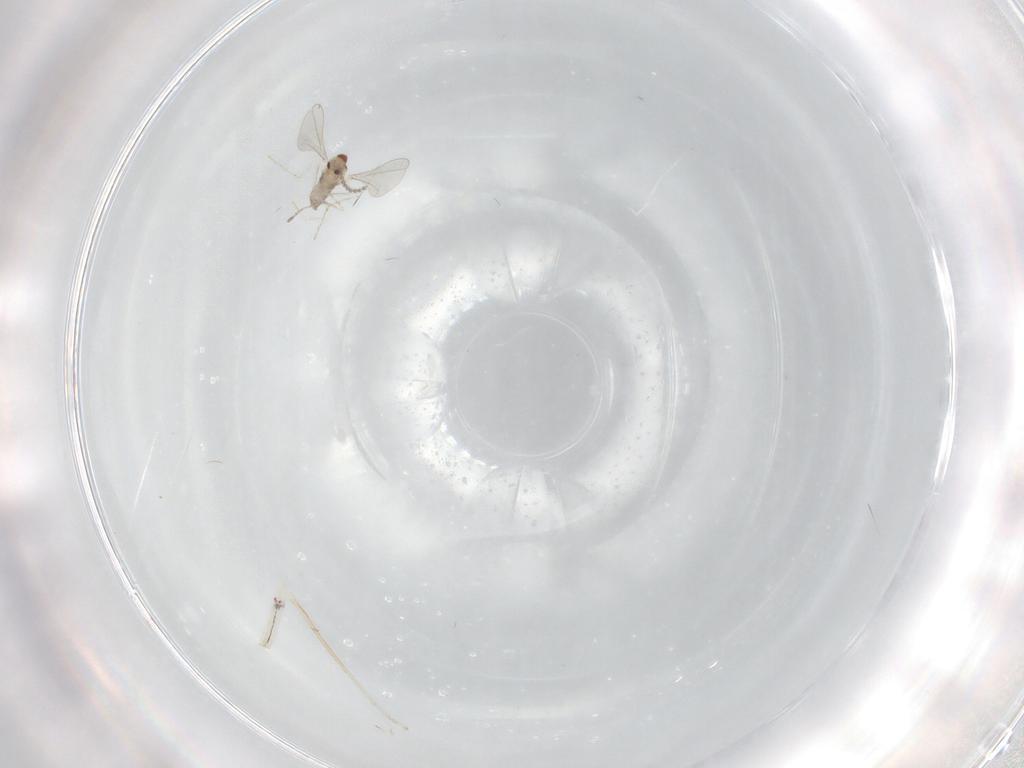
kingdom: Animalia
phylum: Arthropoda
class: Insecta
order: Diptera
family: Cecidomyiidae
